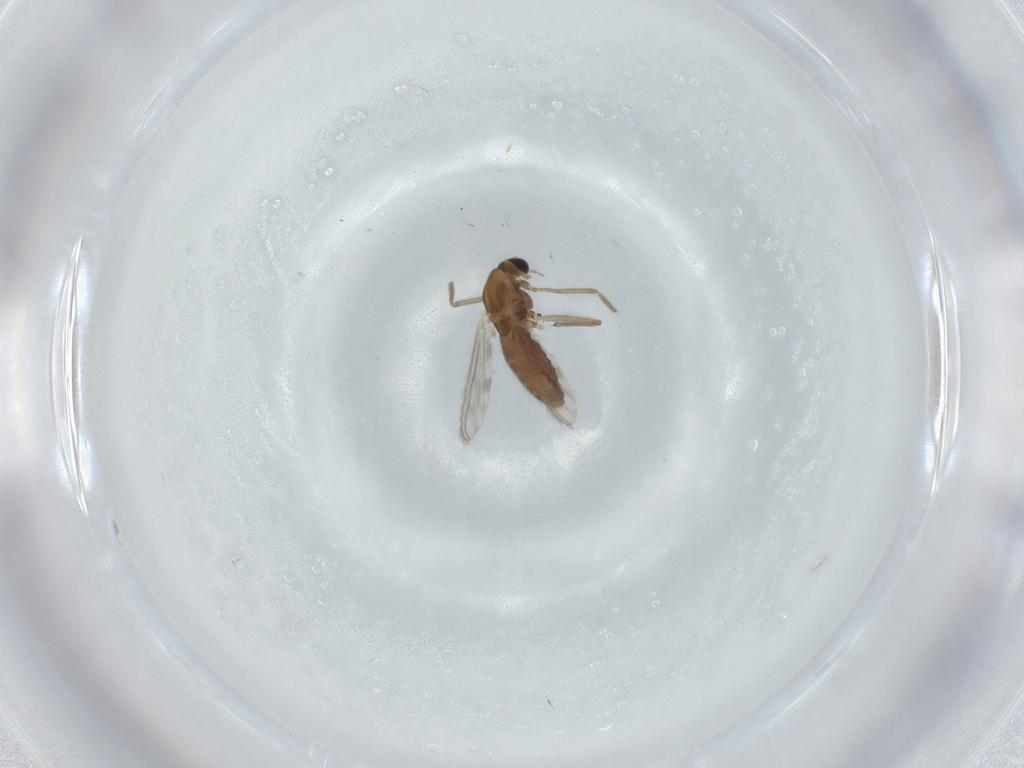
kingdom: Animalia
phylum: Arthropoda
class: Insecta
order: Diptera
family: Chironomidae
